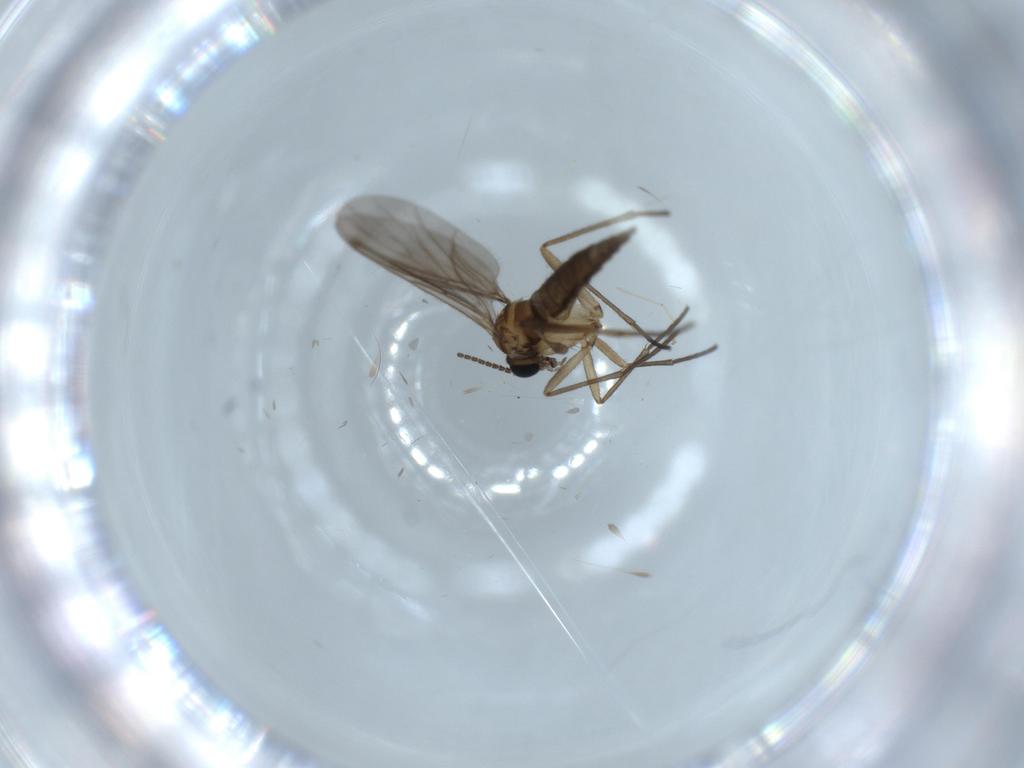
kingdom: Animalia
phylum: Arthropoda
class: Insecta
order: Diptera
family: Sciaridae
